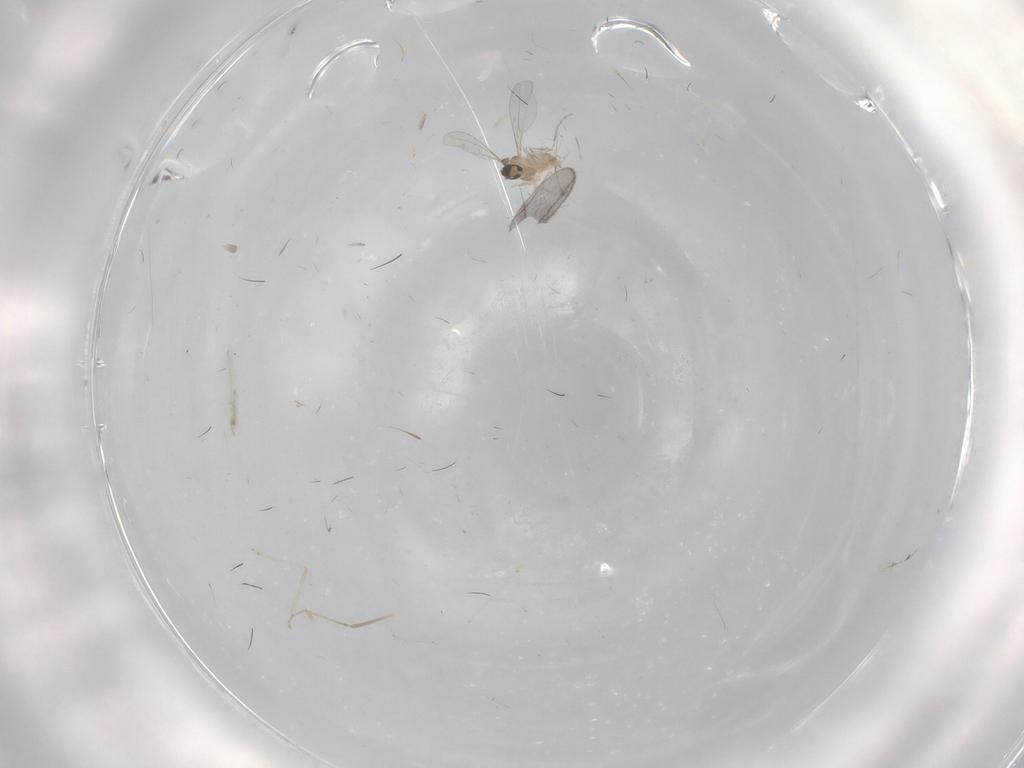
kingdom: Animalia
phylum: Arthropoda
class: Insecta
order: Diptera
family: Cecidomyiidae
